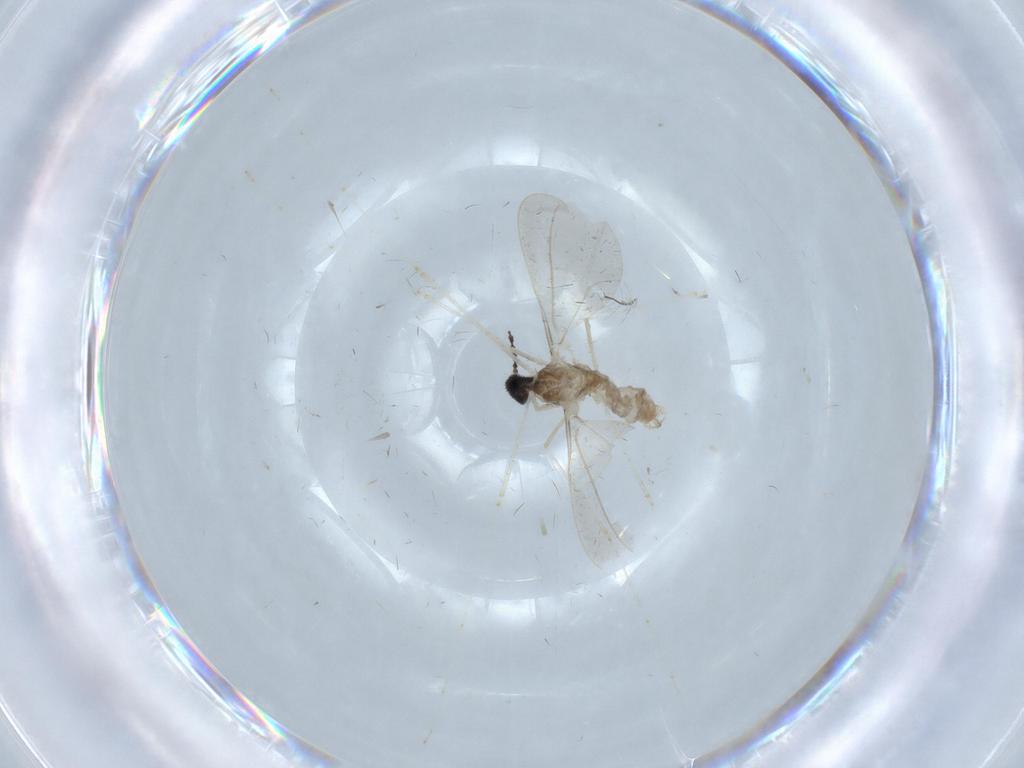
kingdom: Animalia
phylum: Arthropoda
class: Insecta
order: Diptera
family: Cecidomyiidae
